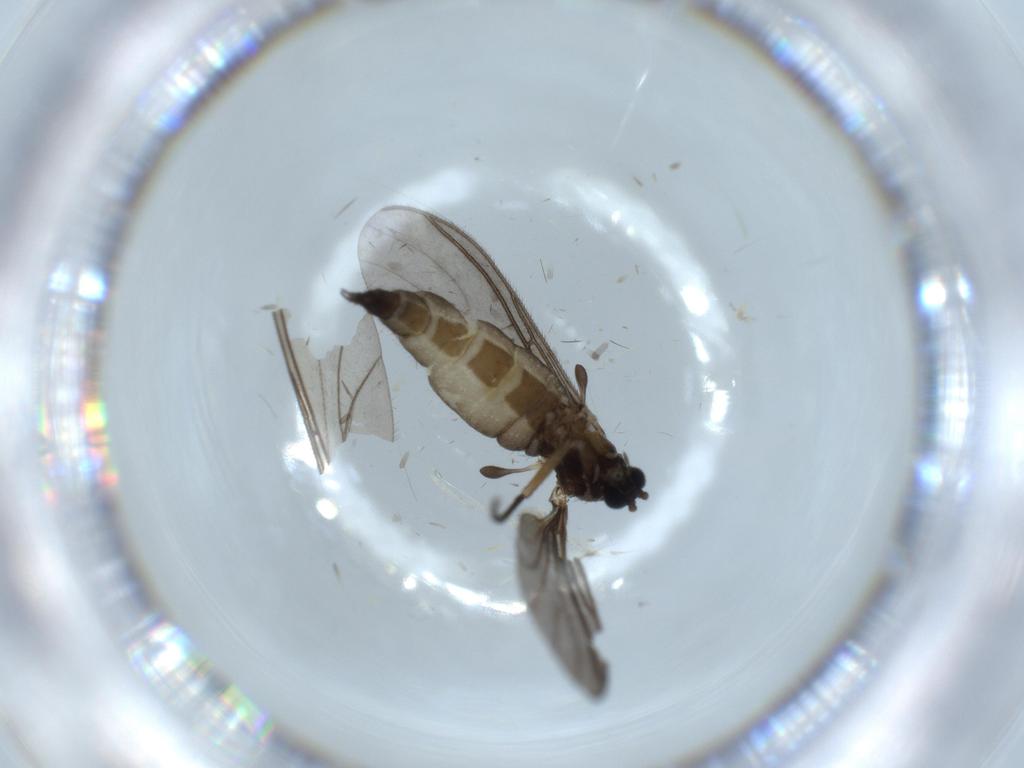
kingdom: Animalia
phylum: Arthropoda
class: Insecta
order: Diptera
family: Cecidomyiidae
